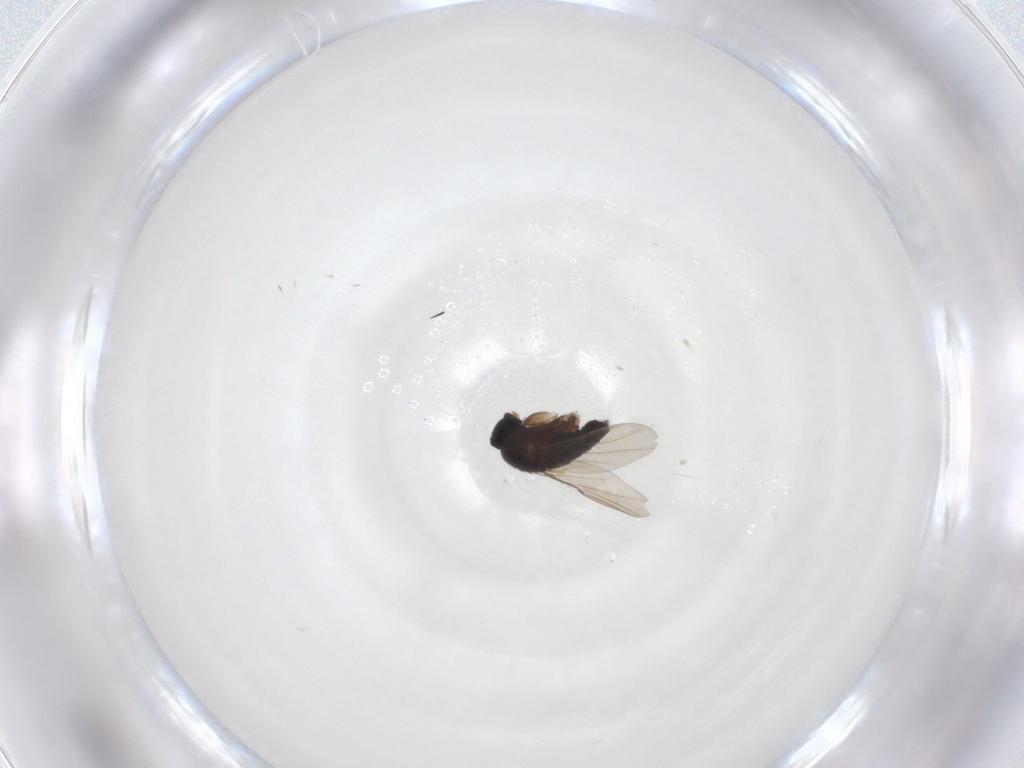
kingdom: Animalia
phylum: Arthropoda
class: Insecta
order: Diptera
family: Phoridae
